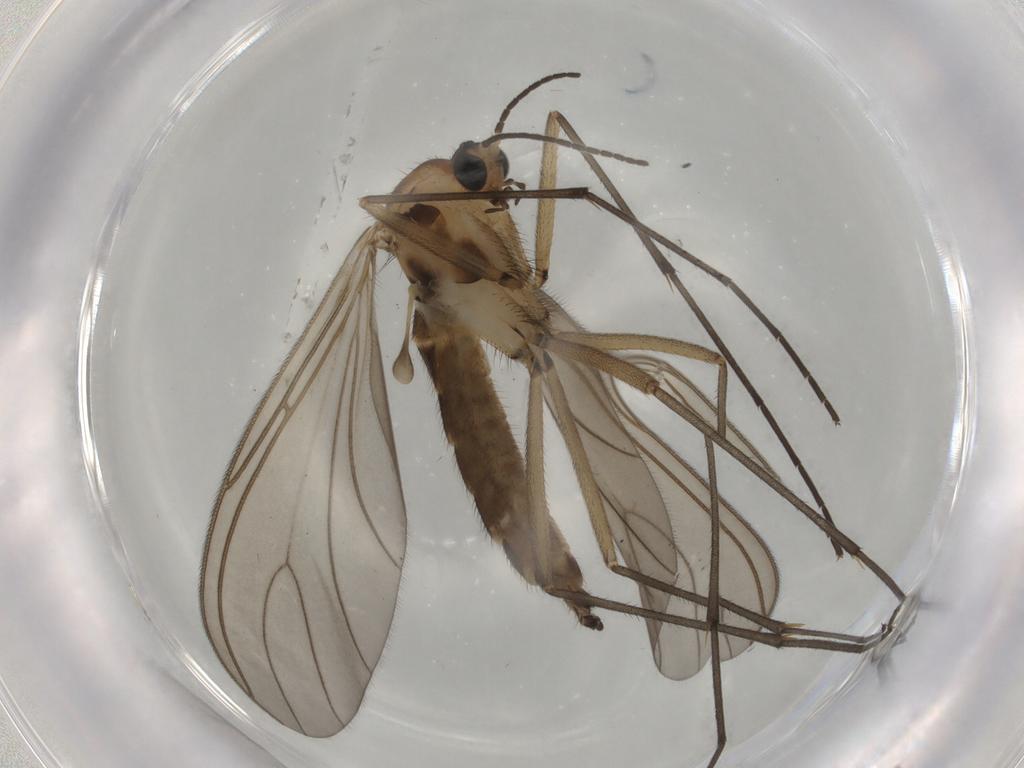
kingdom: Animalia
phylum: Arthropoda
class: Insecta
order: Diptera
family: Sciaridae
